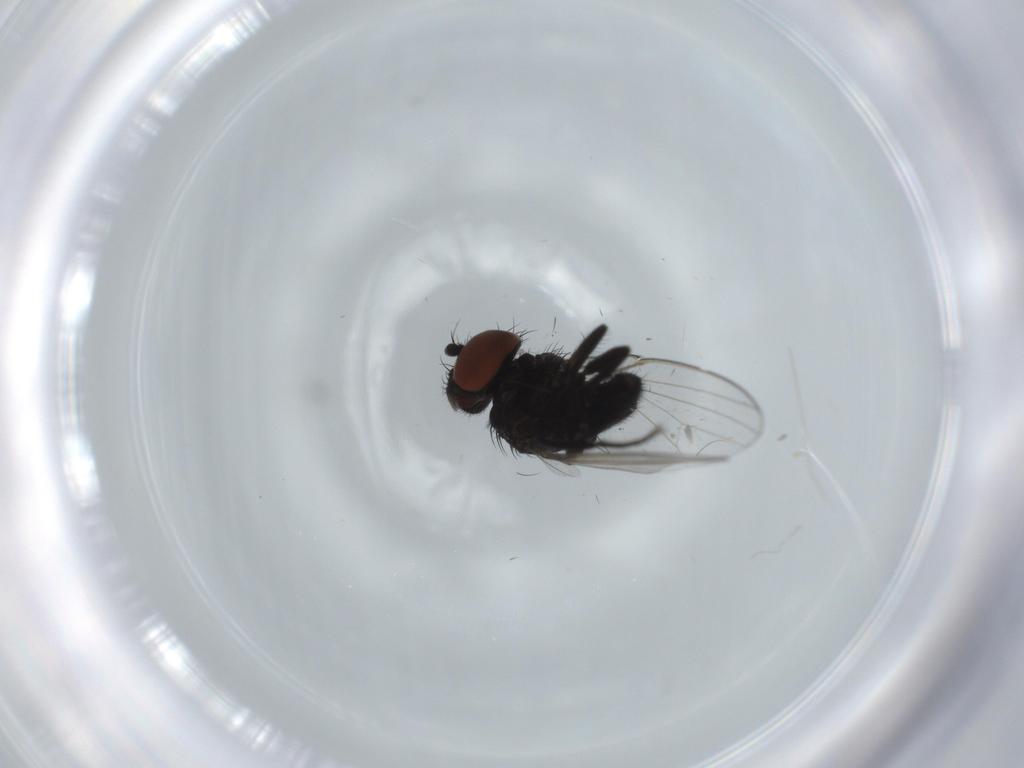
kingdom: Animalia
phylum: Arthropoda
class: Insecta
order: Diptera
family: Milichiidae
